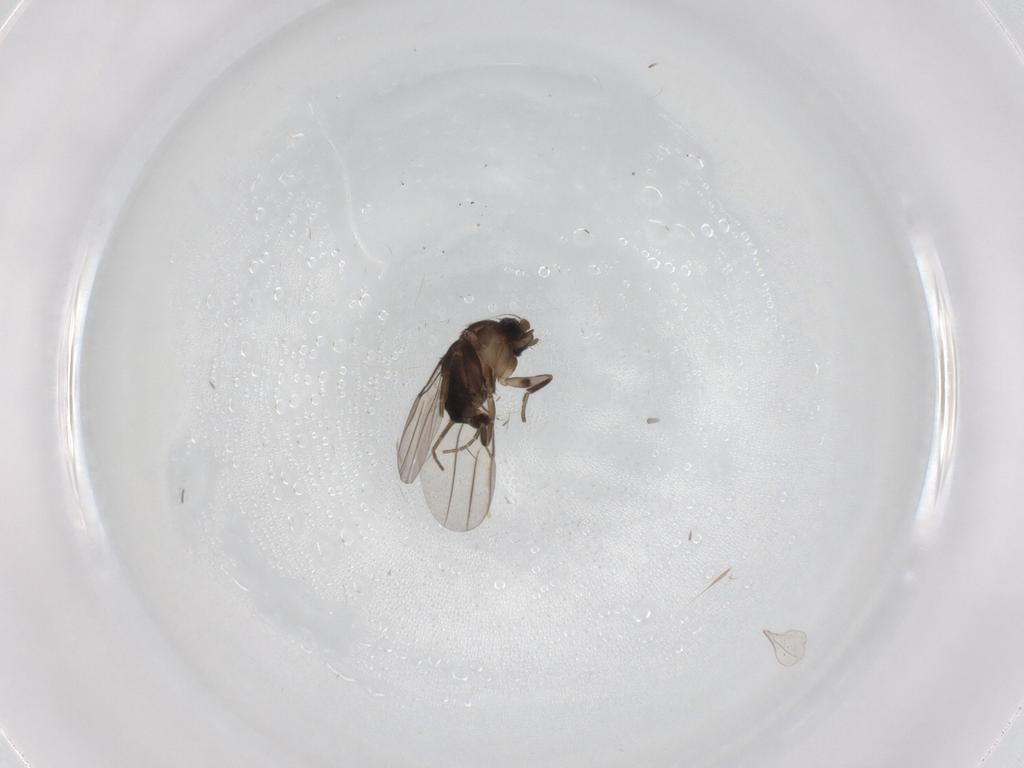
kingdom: Animalia
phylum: Arthropoda
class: Insecta
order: Diptera
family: Phoridae
